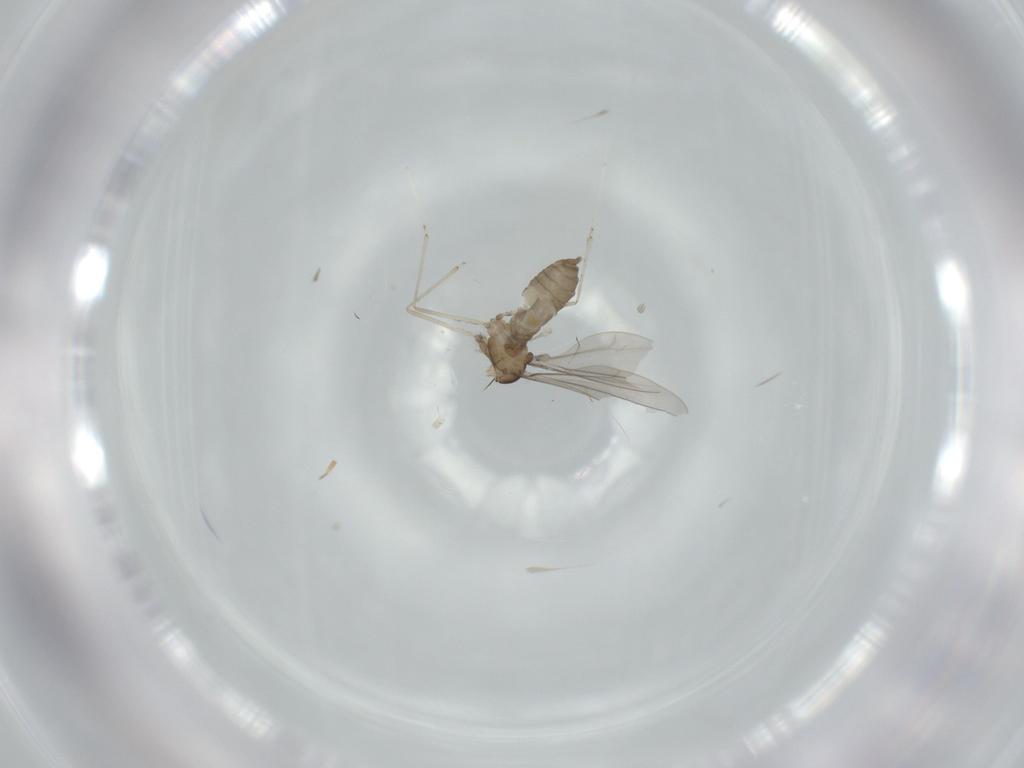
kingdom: Animalia
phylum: Arthropoda
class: Insecta
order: Diptera
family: Cecidomyiidae
